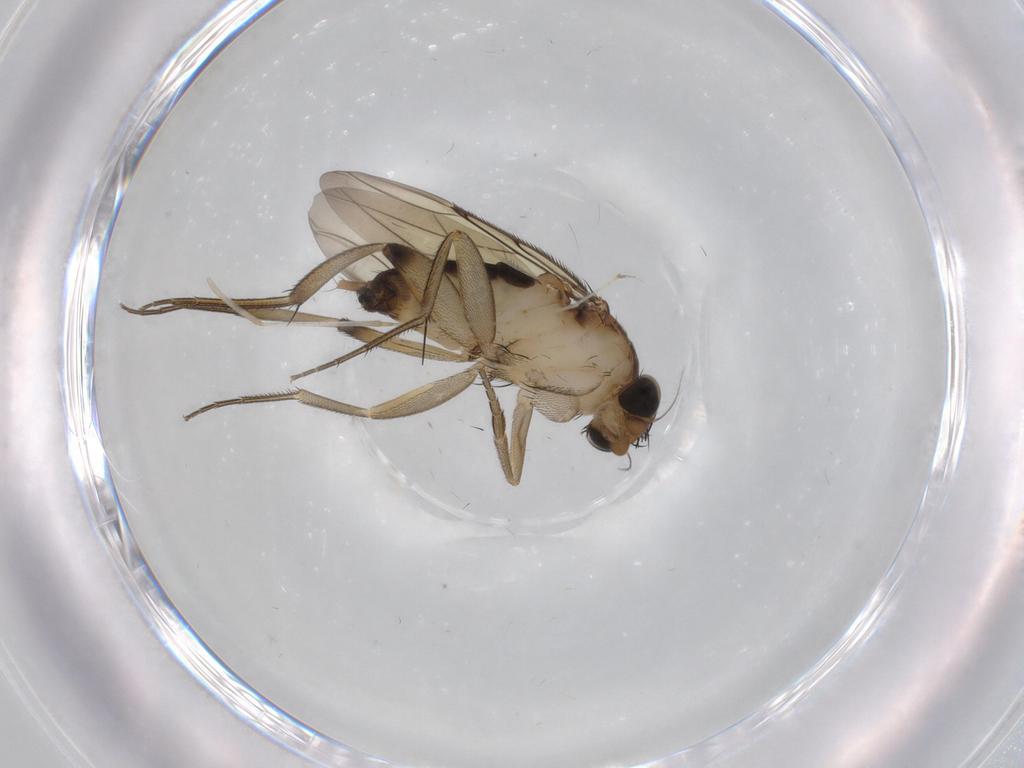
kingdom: Animalia
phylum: Arthropoda
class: Insecta
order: Diptera
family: Phoridae
